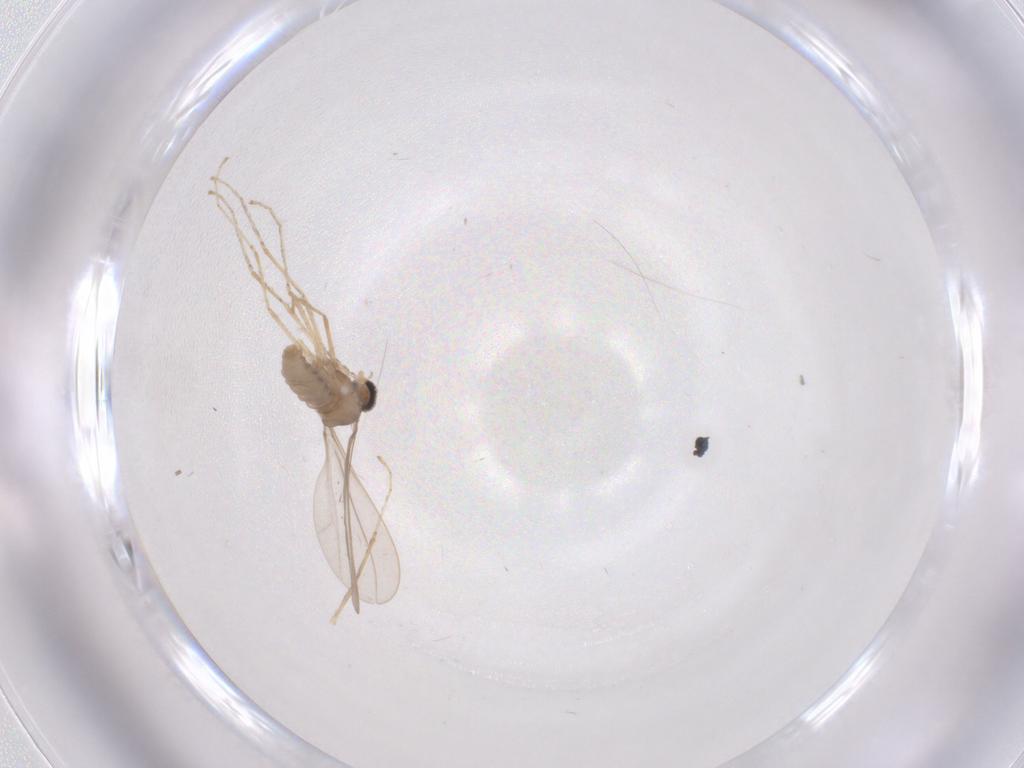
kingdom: Animalia
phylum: Arthropoda
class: Insecta
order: Diptera
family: Cecidomyiidae
